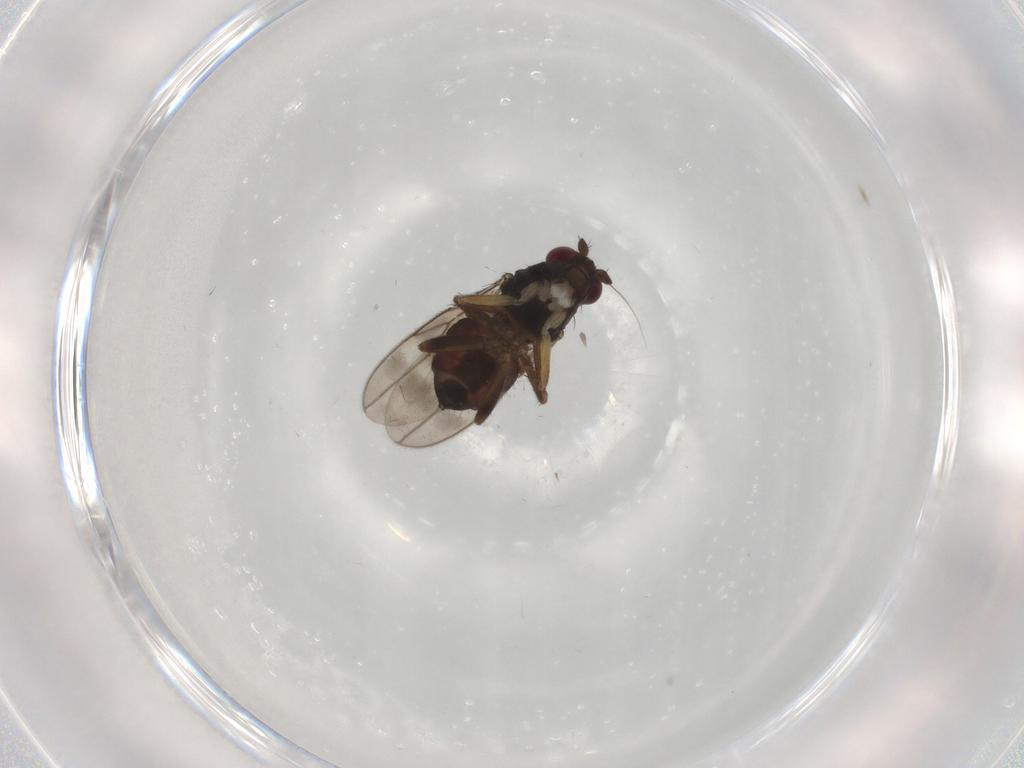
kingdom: Animalia
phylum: Arthropoda
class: Insecta
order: Diptera
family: Sphaeroceridae
